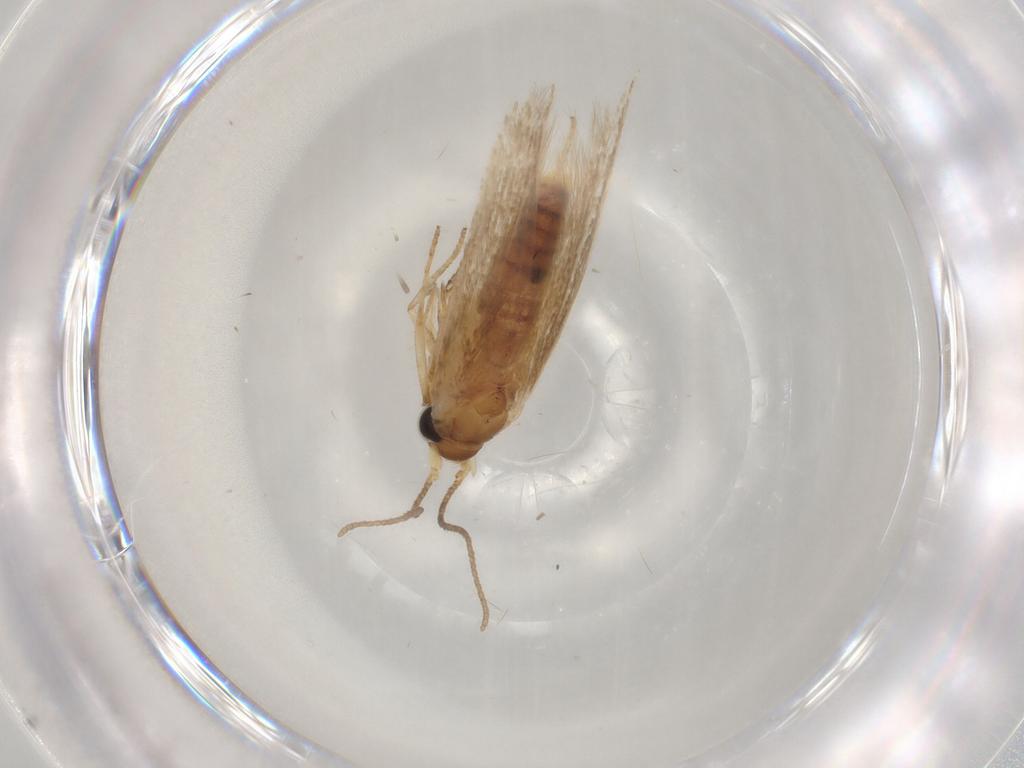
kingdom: Animalia
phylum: Arthropoda
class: Insecta
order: Lepidoptera
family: Blastobasidae
